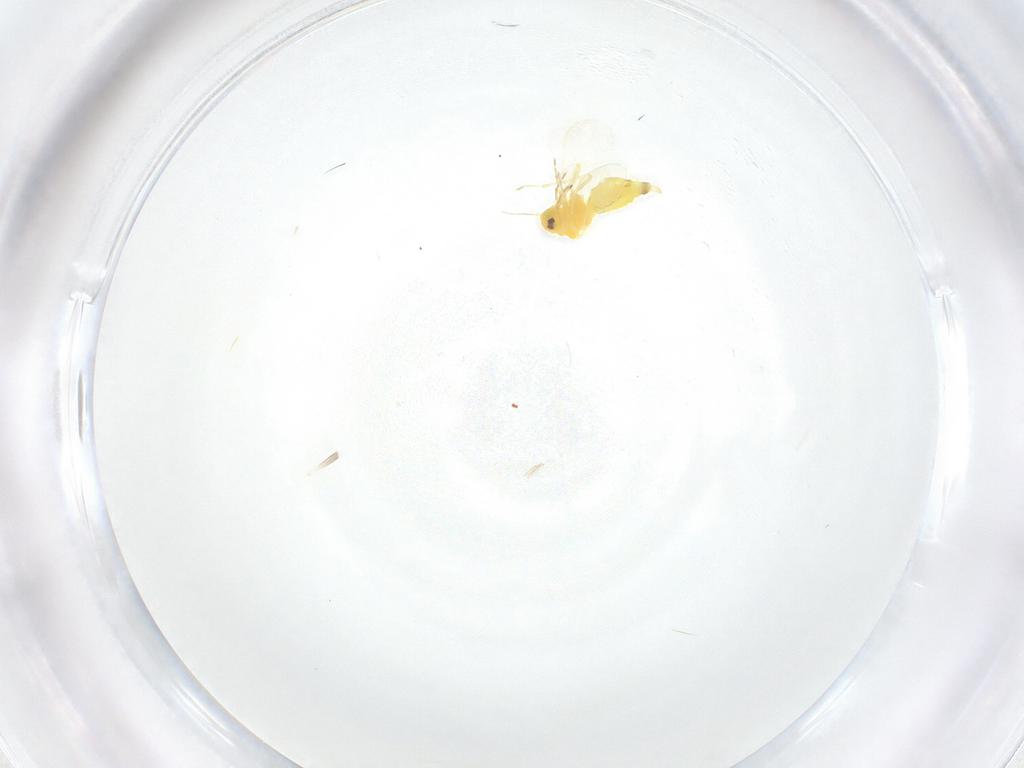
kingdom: Animalia
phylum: Arthropoda
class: Insecta
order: Hemiptera
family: Aleyrodidae
